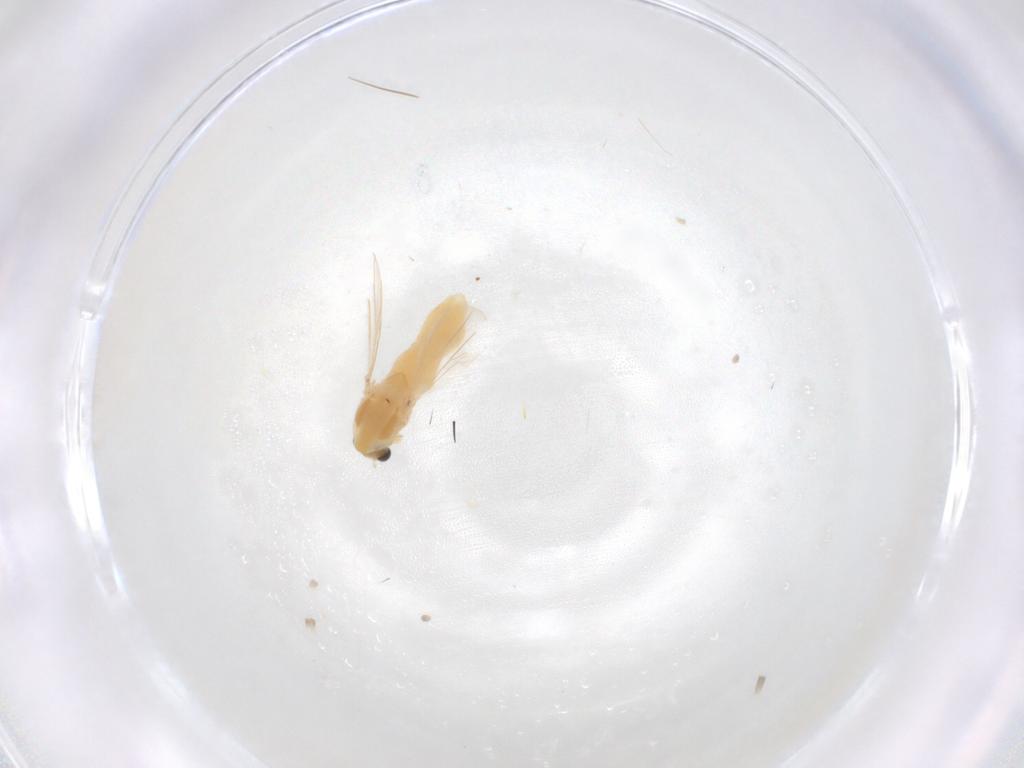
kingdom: Animalia
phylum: Arthropoda
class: Insecta
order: Diptera
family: Chironomidae
